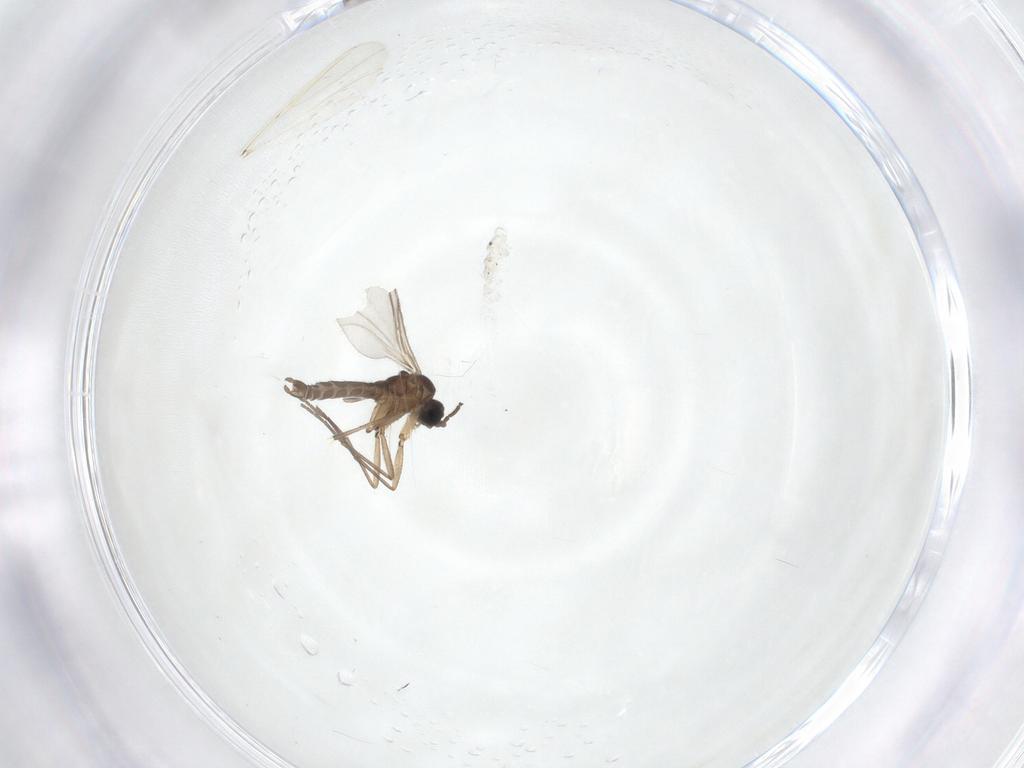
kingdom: Animalia
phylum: Arthropoda
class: Insecta
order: Diptera
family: Sciaridae
